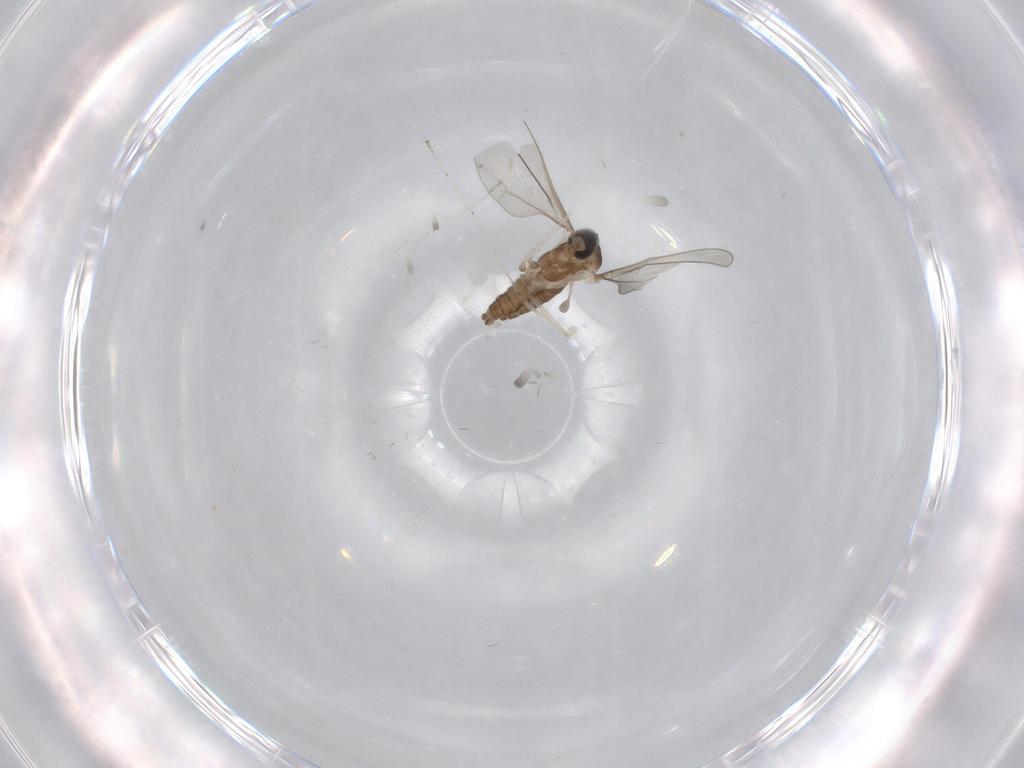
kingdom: Animalia
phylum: Arthropoda
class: Insecta
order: Diptera
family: Cecidomyiidae
